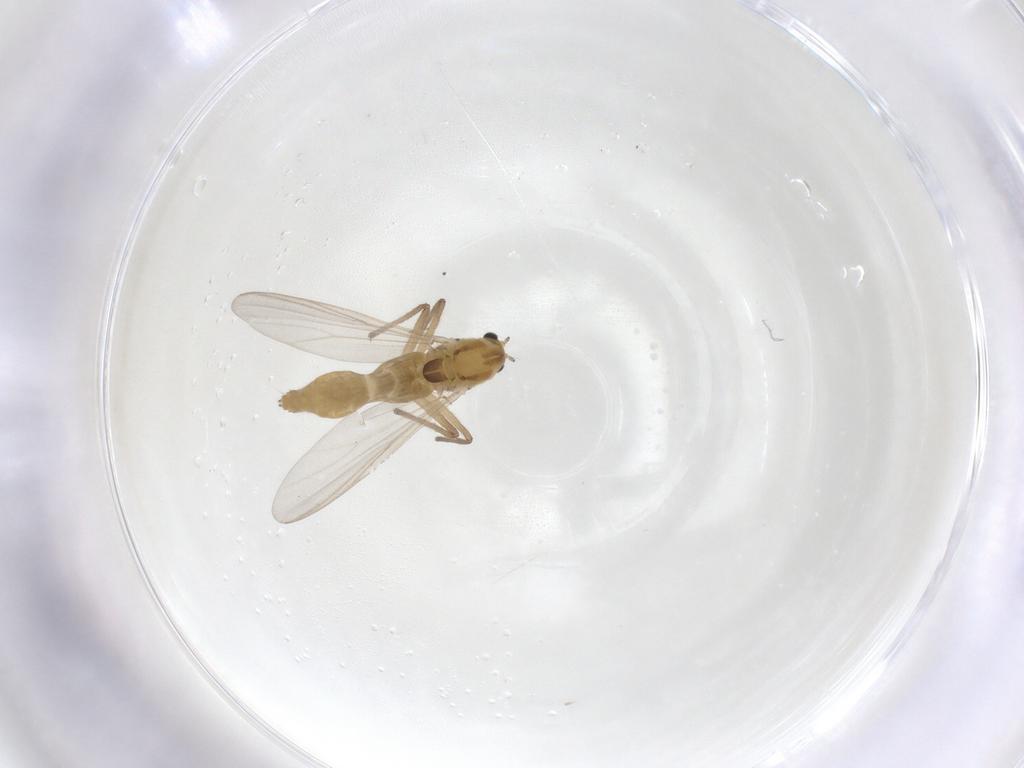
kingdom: Animalia
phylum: Arthropoda
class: Insecta
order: Diptera
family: Chironomidae
